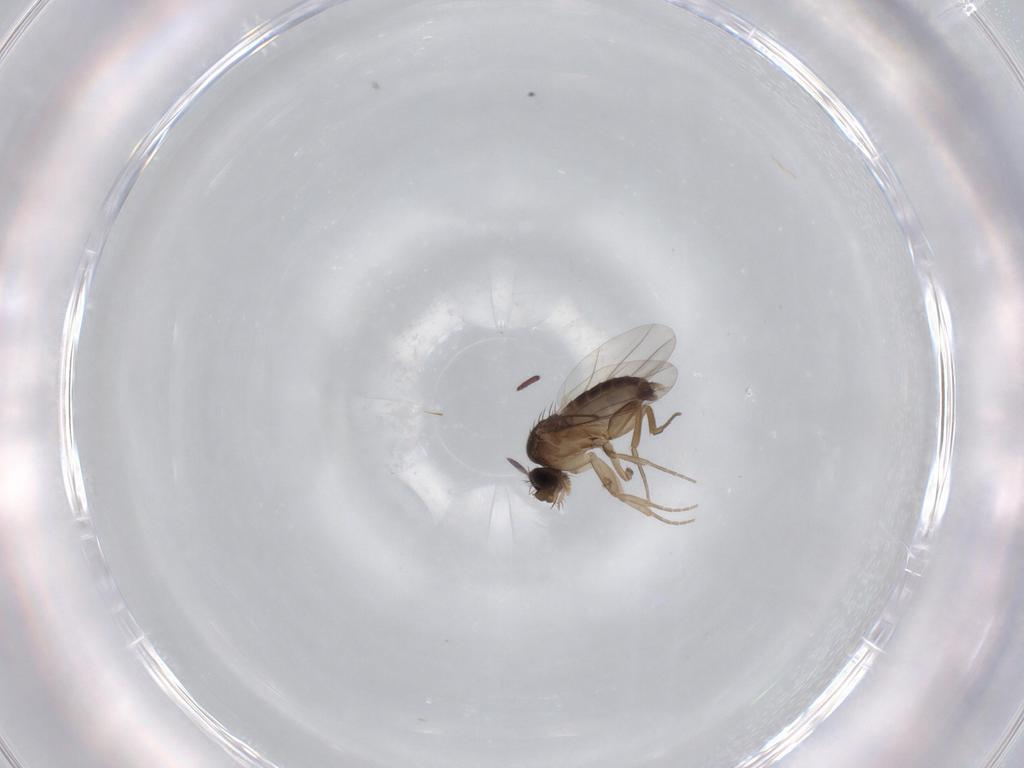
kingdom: Animalia
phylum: Arthropoda
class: Insecta
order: Diptera
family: Phoridae
